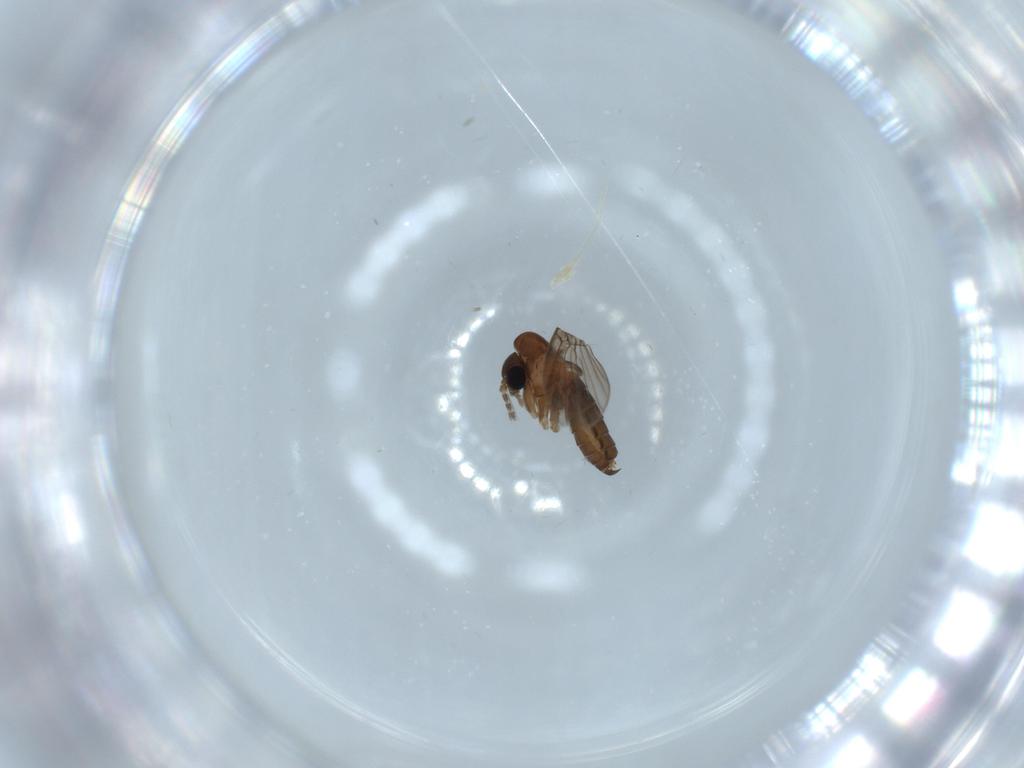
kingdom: Animalia
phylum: Arthropoda
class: Insecta
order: Diptera
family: Psychodidae
